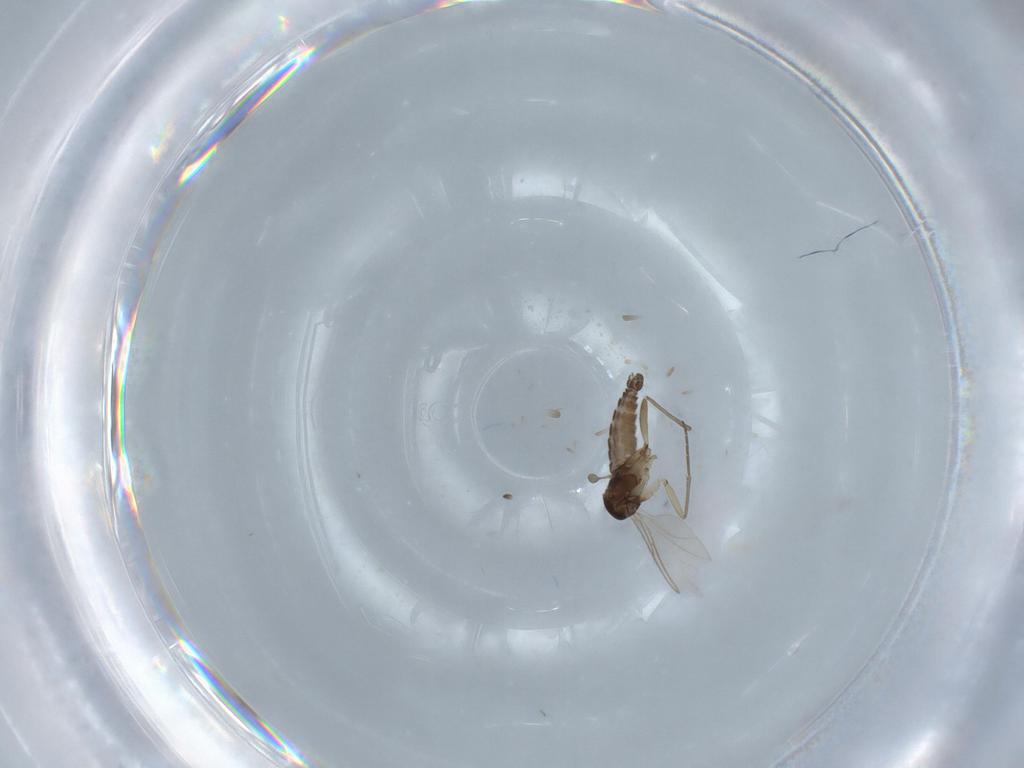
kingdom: Animalia
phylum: Arthropoda
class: Insecta
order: Diptera
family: Sciaridae
